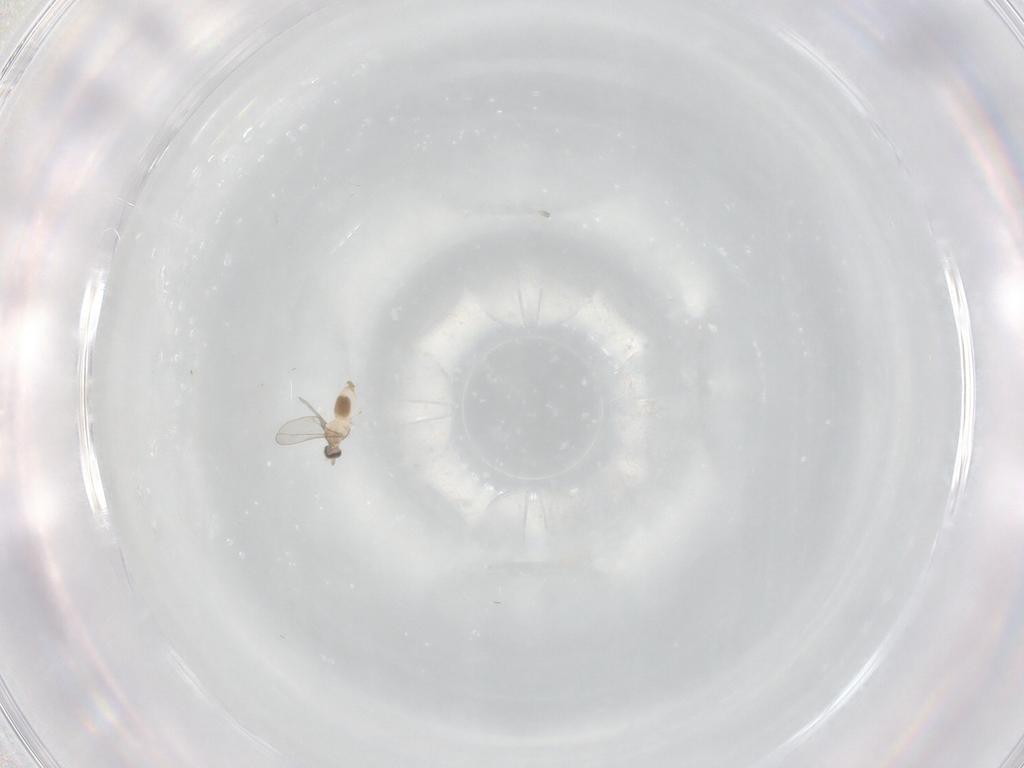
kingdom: Animalia
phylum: Arthropoda
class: Insecta
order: Diptera
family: Cecidomyiidae
